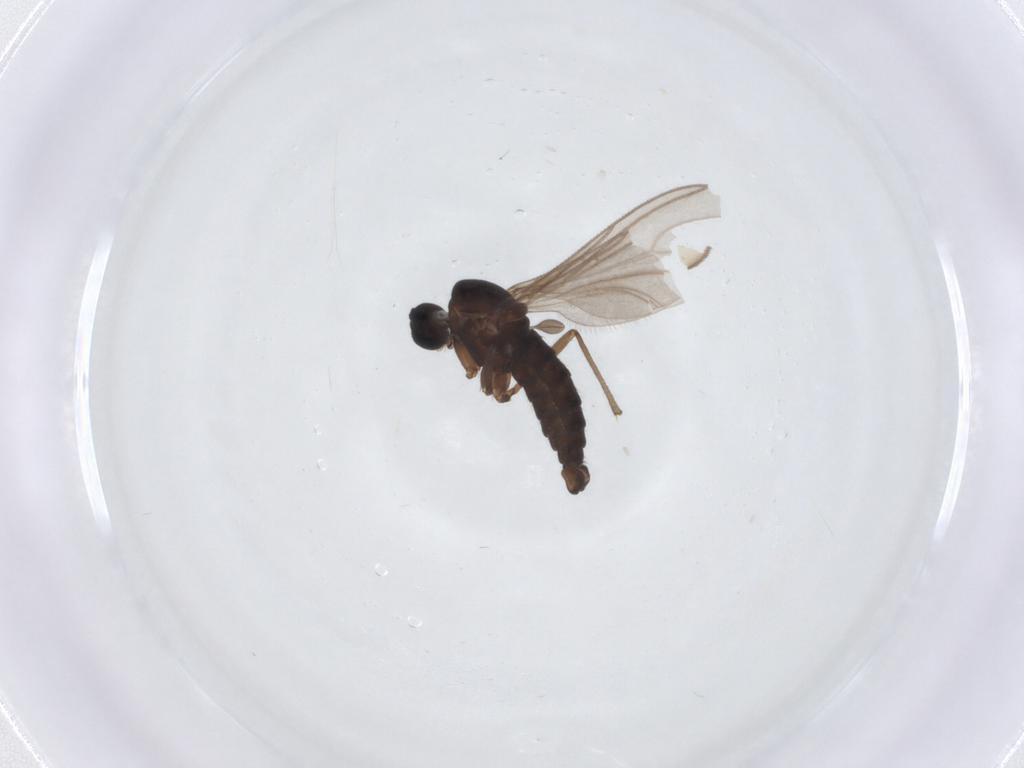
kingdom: Animalia
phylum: Arthropoda
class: Insecta
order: Diptera
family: Sciaridae
